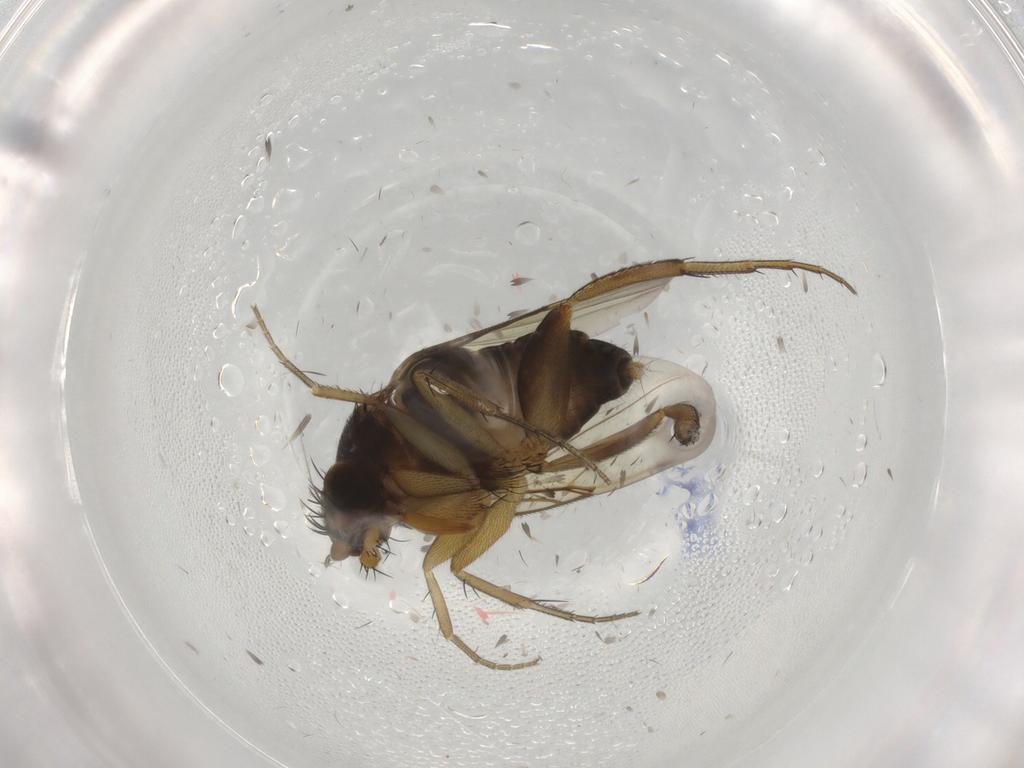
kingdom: Animalia
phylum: Arthropoda
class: Insecta
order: Diptera
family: Phoridae
